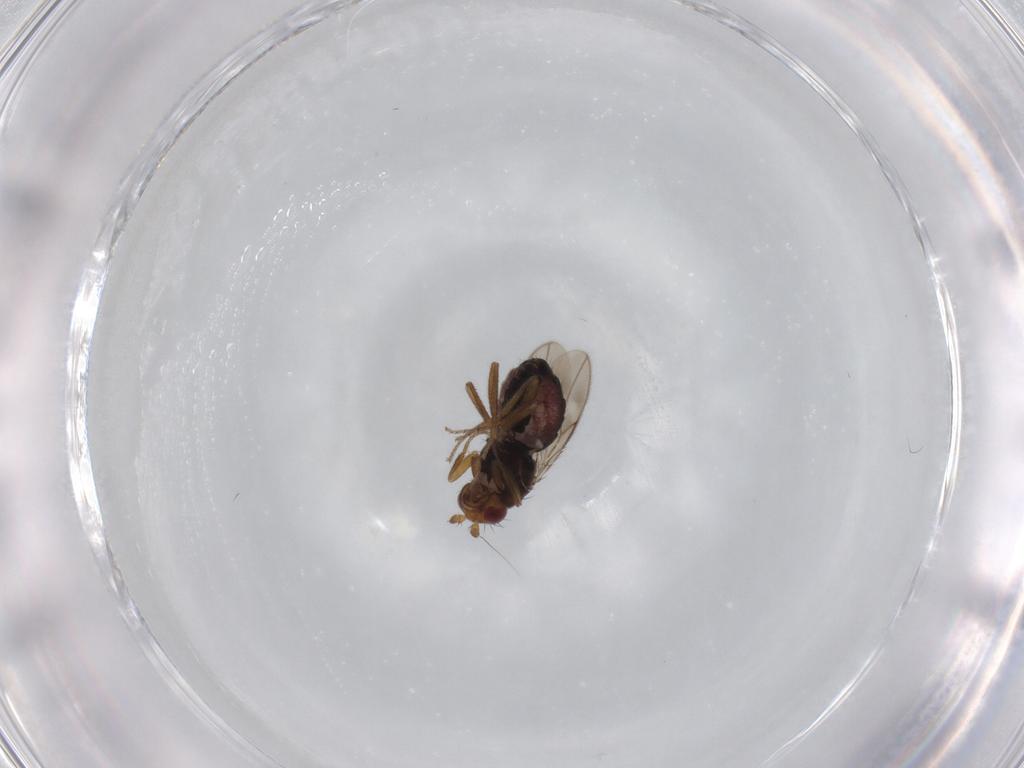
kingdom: Animalia
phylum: Arthropoda
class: Insecta
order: Diptera
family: Sphaeroceridae
